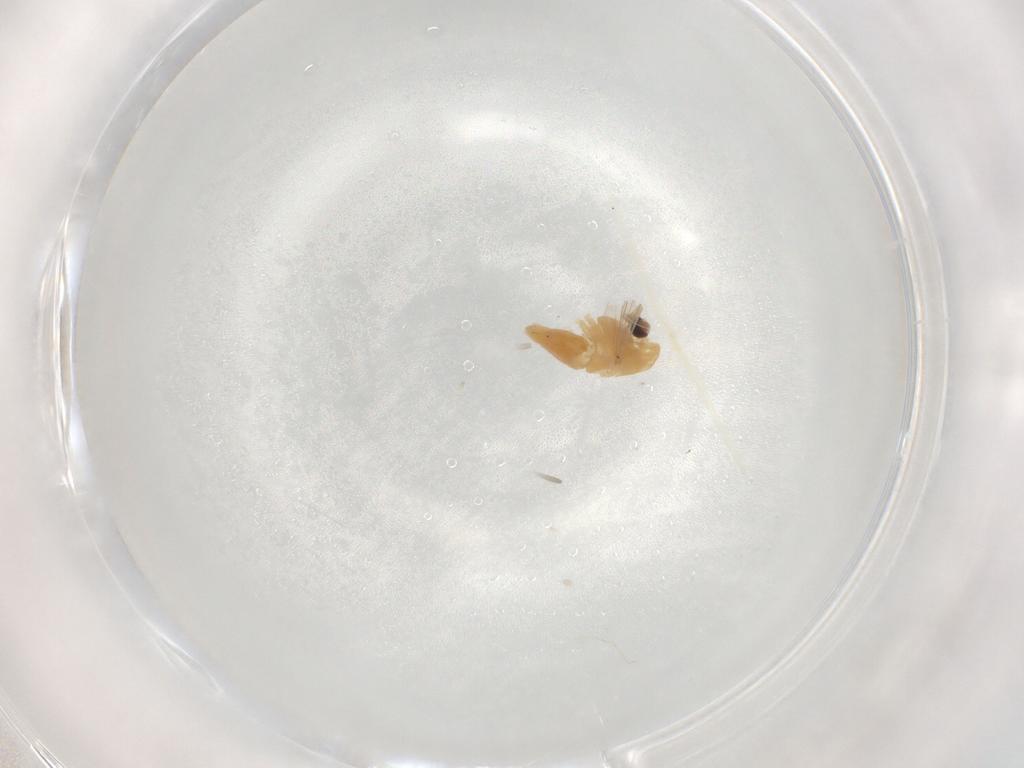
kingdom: Animalia
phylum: Arthropoda
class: Insecta
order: Diptera
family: Chironomidae
